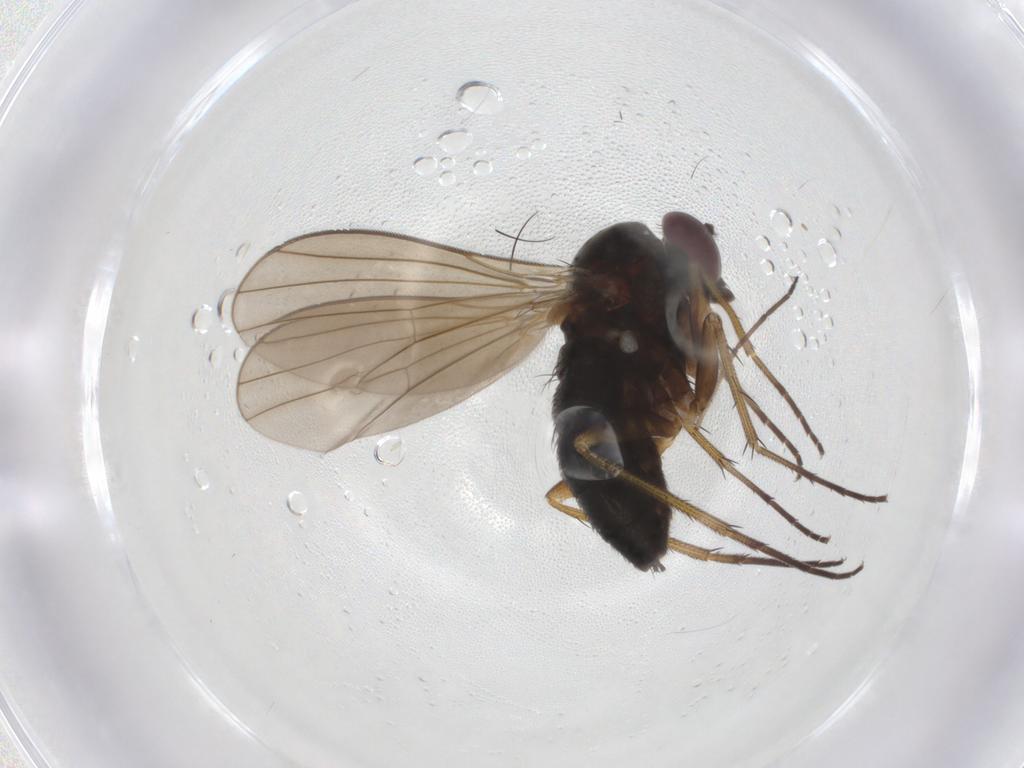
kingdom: Animalia
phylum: Arthropoda
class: Insecta
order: Diptera
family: Dolichopodidae
